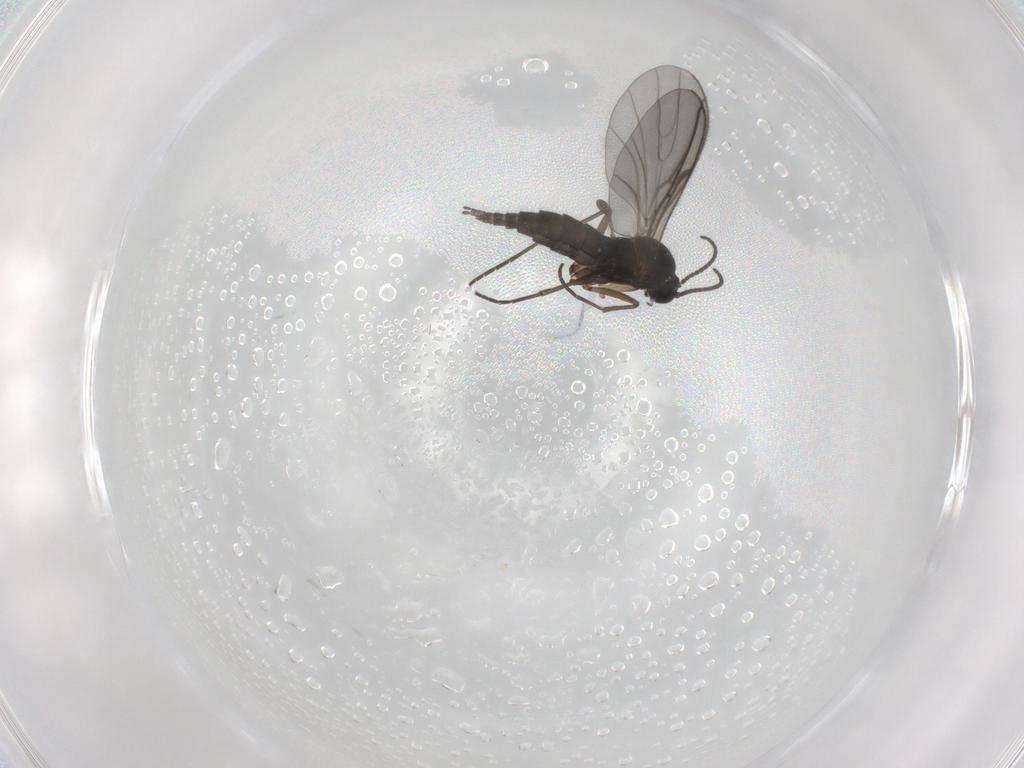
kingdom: Animalia
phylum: Arthropoda
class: Insecta
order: Diptera
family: Sciaridae
